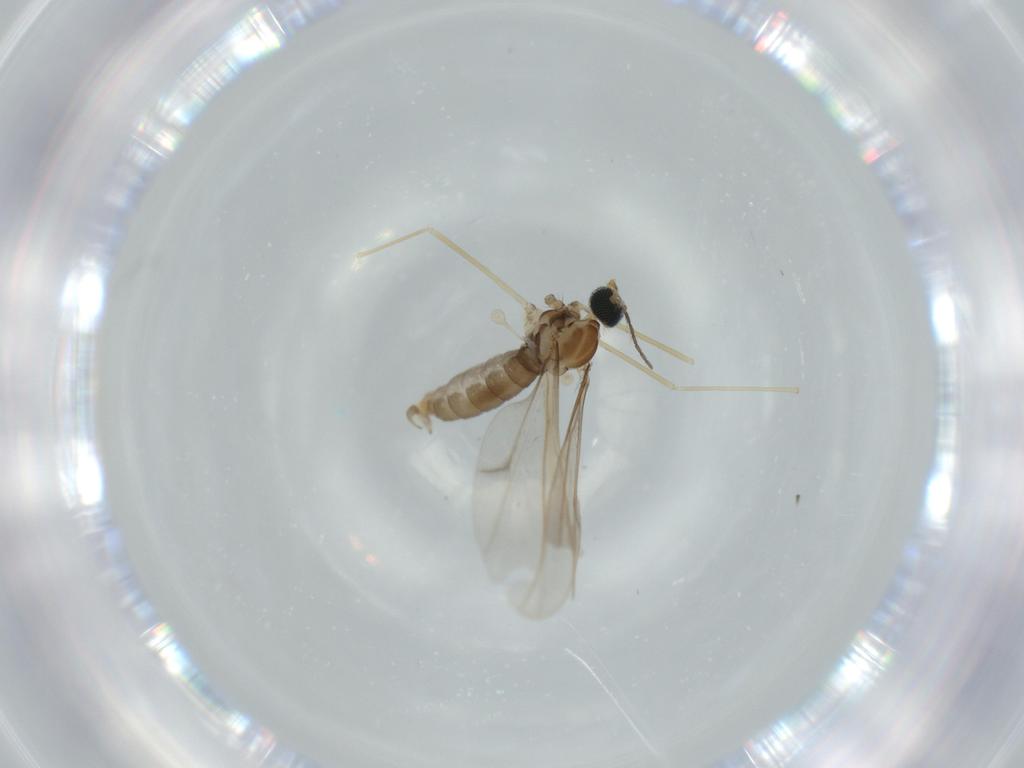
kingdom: Animalia
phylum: Arthropoda
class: Insecta
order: Diptera
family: Cecidomyiidae
